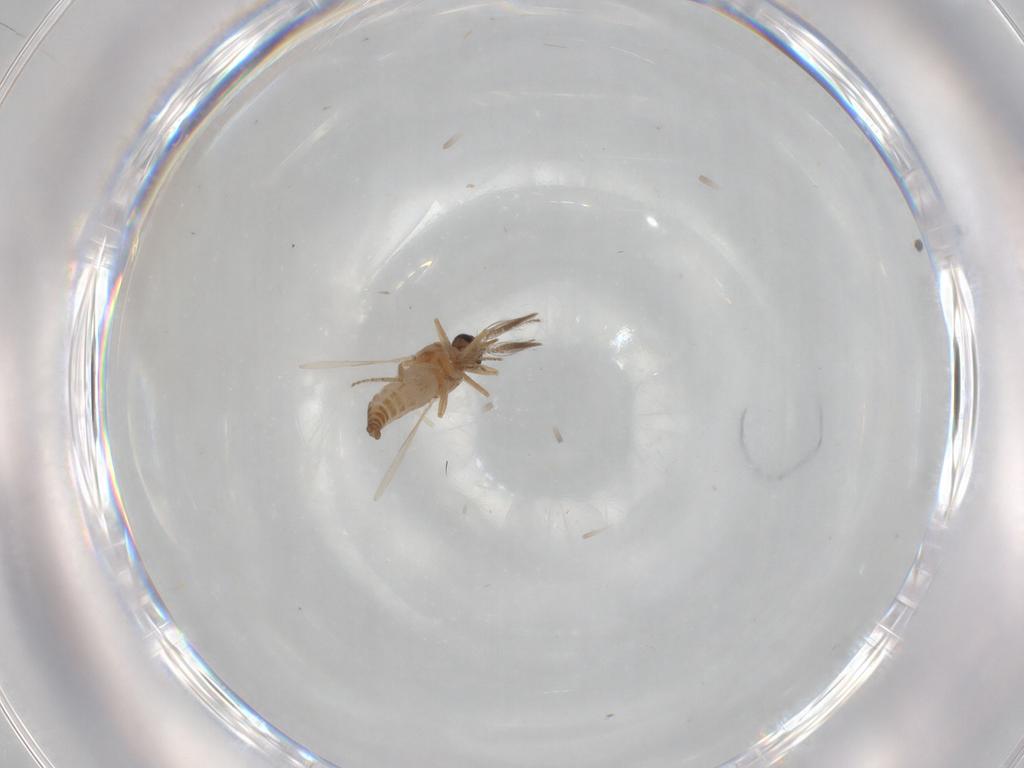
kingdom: Animalia
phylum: Arthropoda
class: Insecta
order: Diptera
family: Ceratopogonidae
